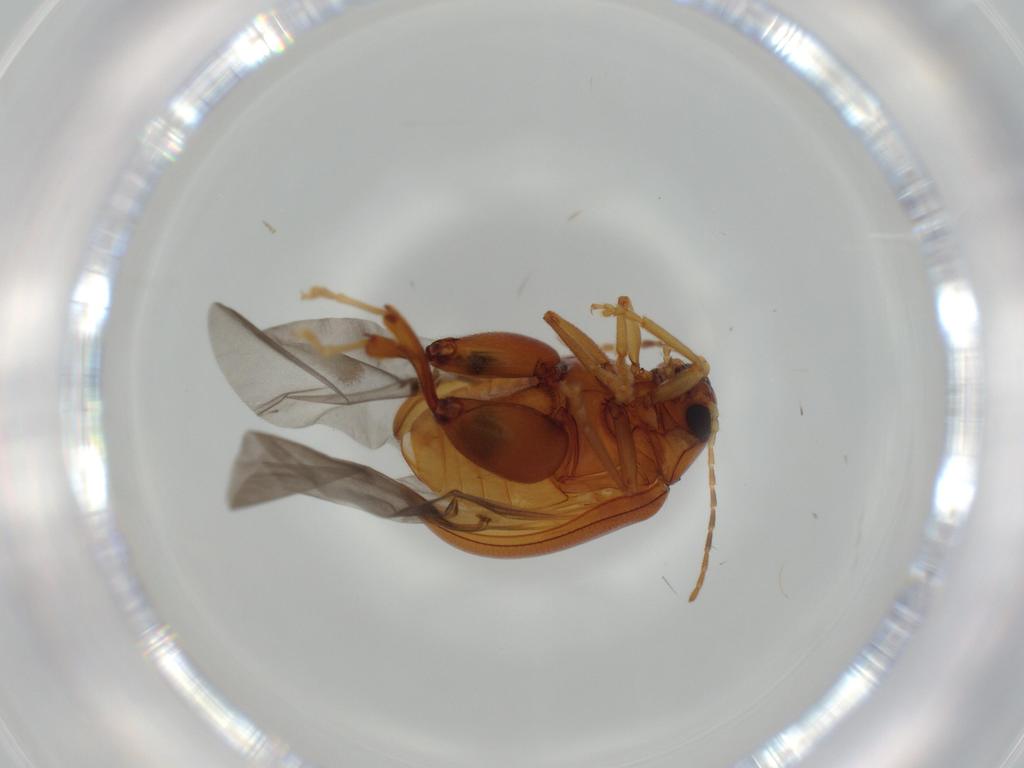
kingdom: Animalia
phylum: Arthropoda
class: Insecta
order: Coleoptera
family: Chrysomelidae
